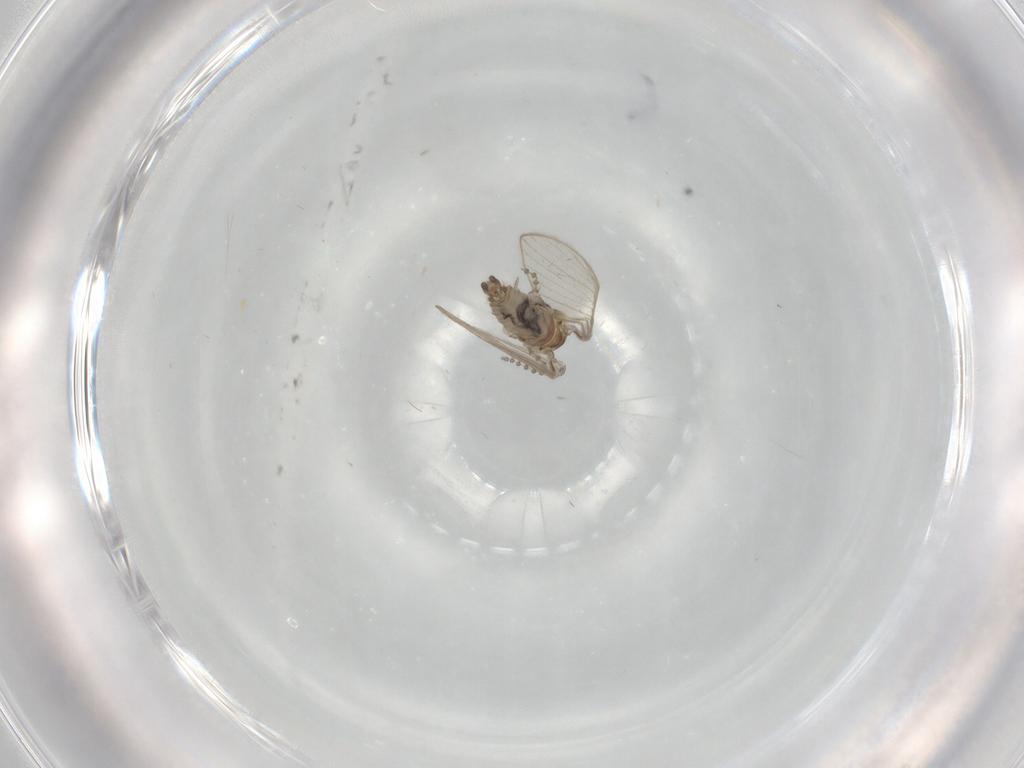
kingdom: Animalia
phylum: Arthropoda
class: Insecta
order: Diptera
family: Psychodidae
